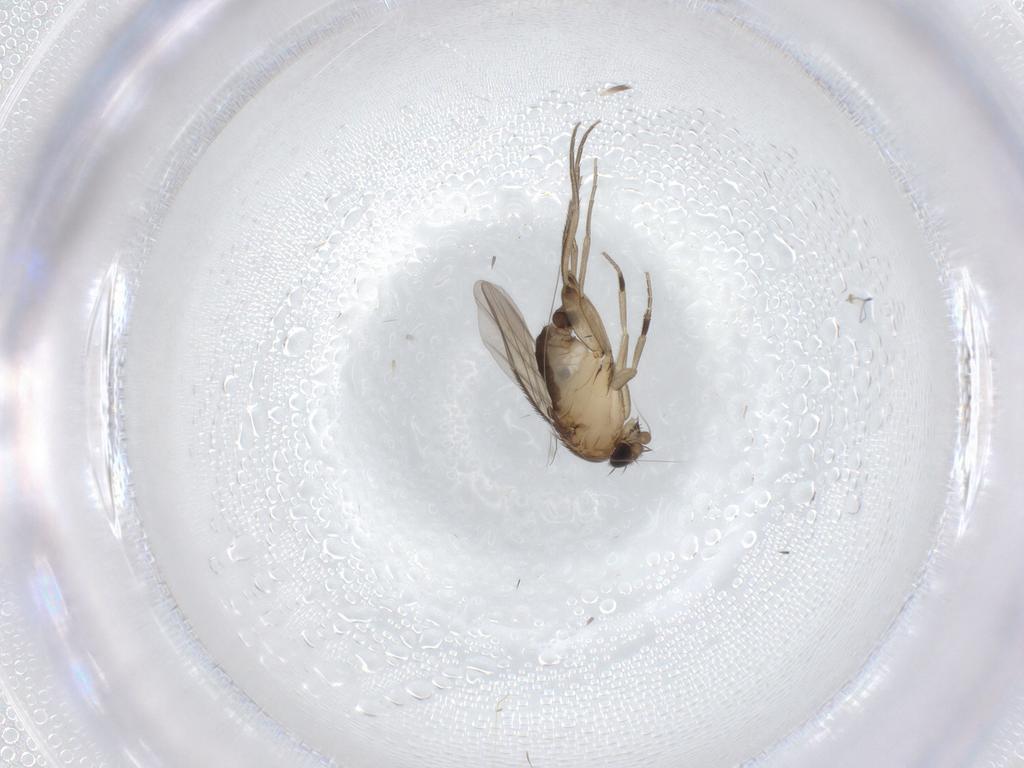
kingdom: Animalia
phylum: Arthropoda
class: Insecta
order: Diptera
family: Phoridae
